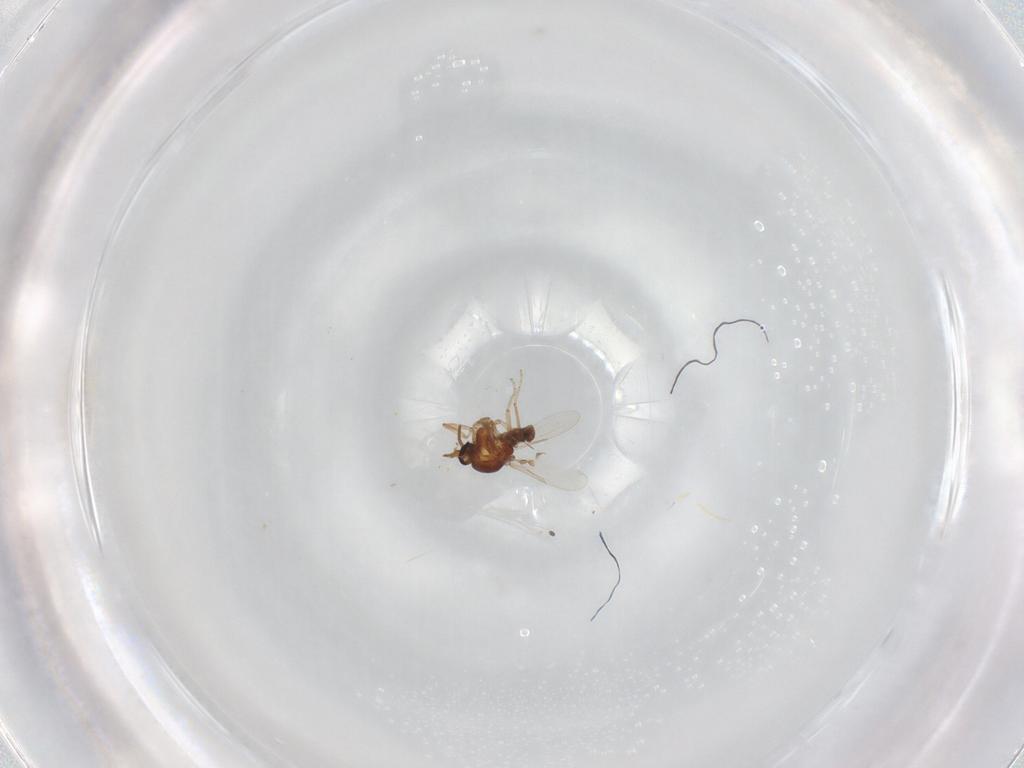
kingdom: Animalia
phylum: Arthropoda
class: Insecta
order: Diptera
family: Ceratopogonidae
